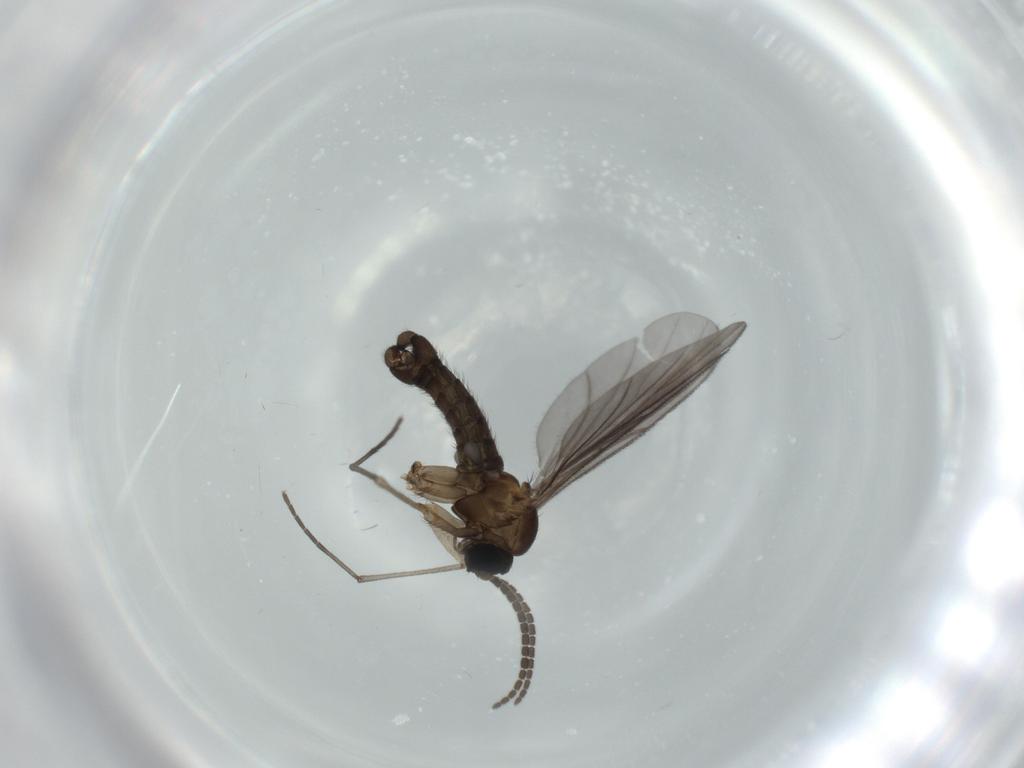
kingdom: Animalia
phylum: Arthropoda
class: Insecta
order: Diptera
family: Sciaridae
